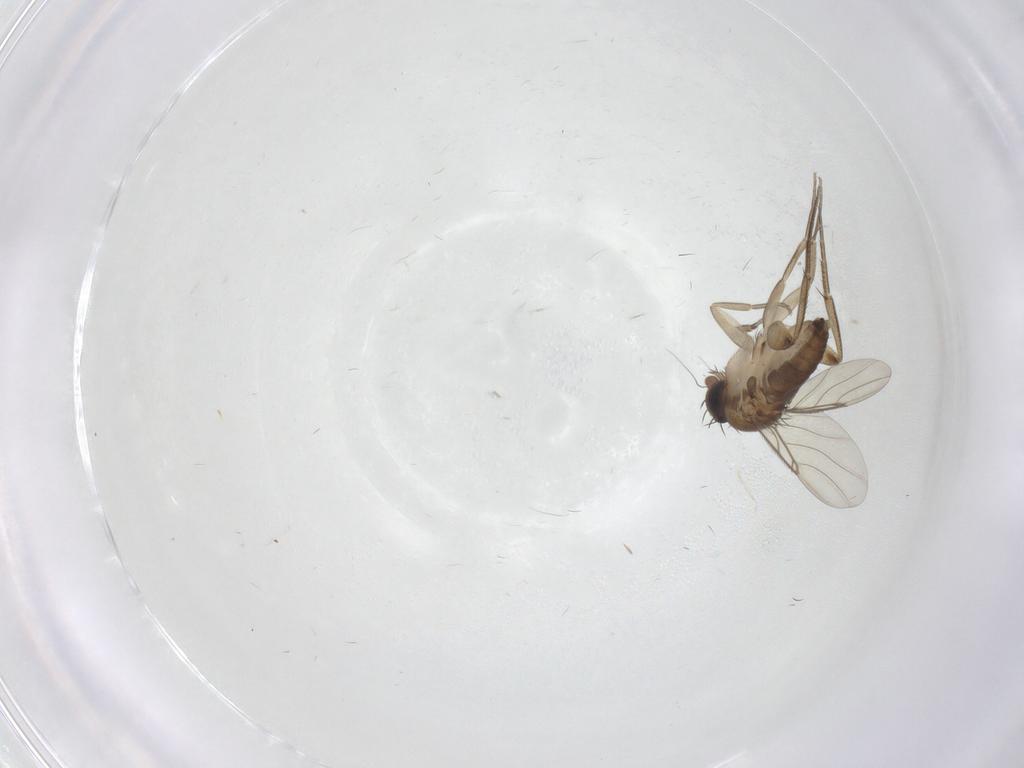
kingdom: Animalia
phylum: Arthropoda
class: Insecta
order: Diptera
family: Phoridae
